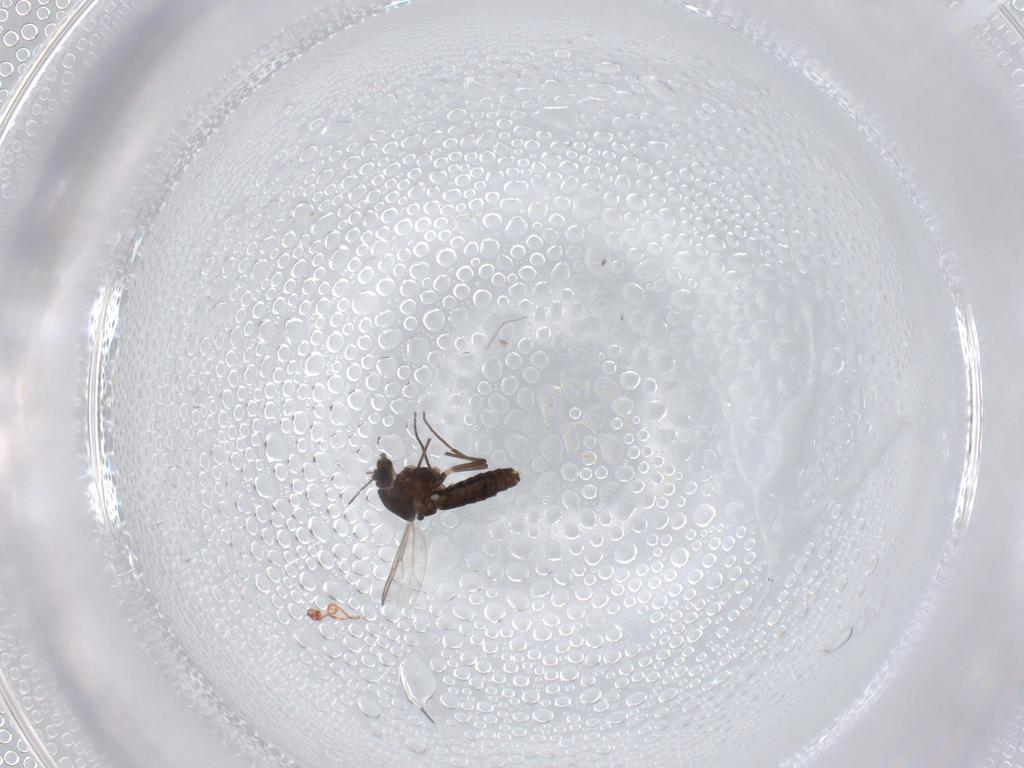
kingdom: Animalia
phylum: Arthropoda
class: Insecta
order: Diptera
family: Chironomidae
